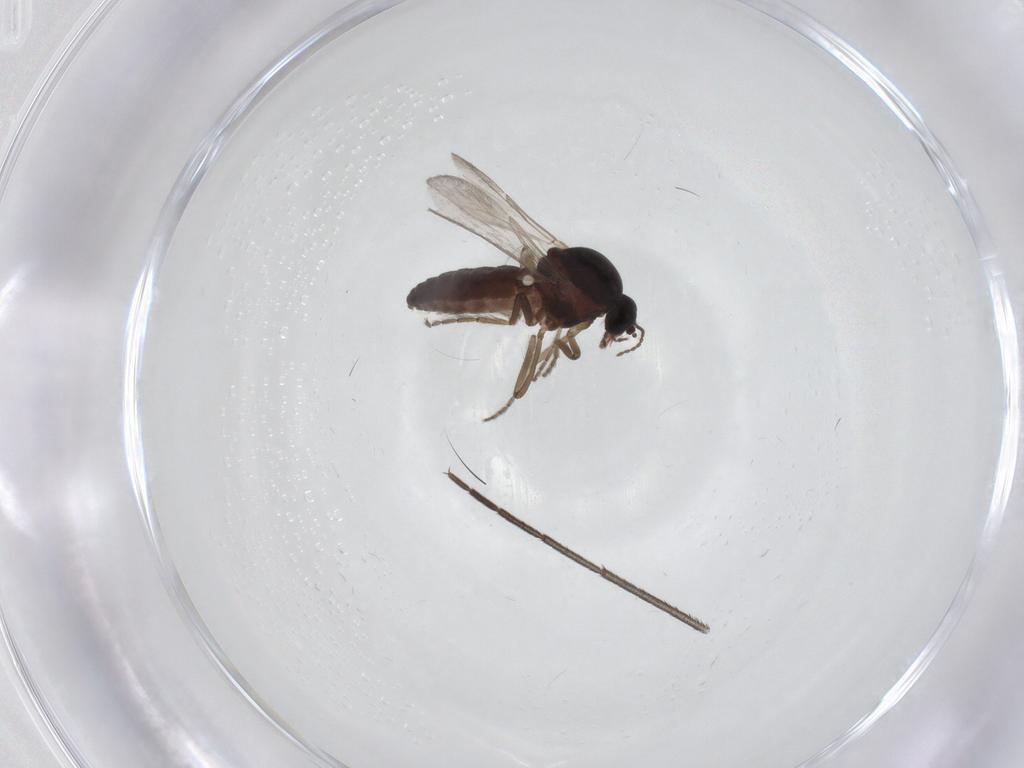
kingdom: Animalia
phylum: Arthropoda
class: Insecta
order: Diptera
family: Ceratopogonidae
